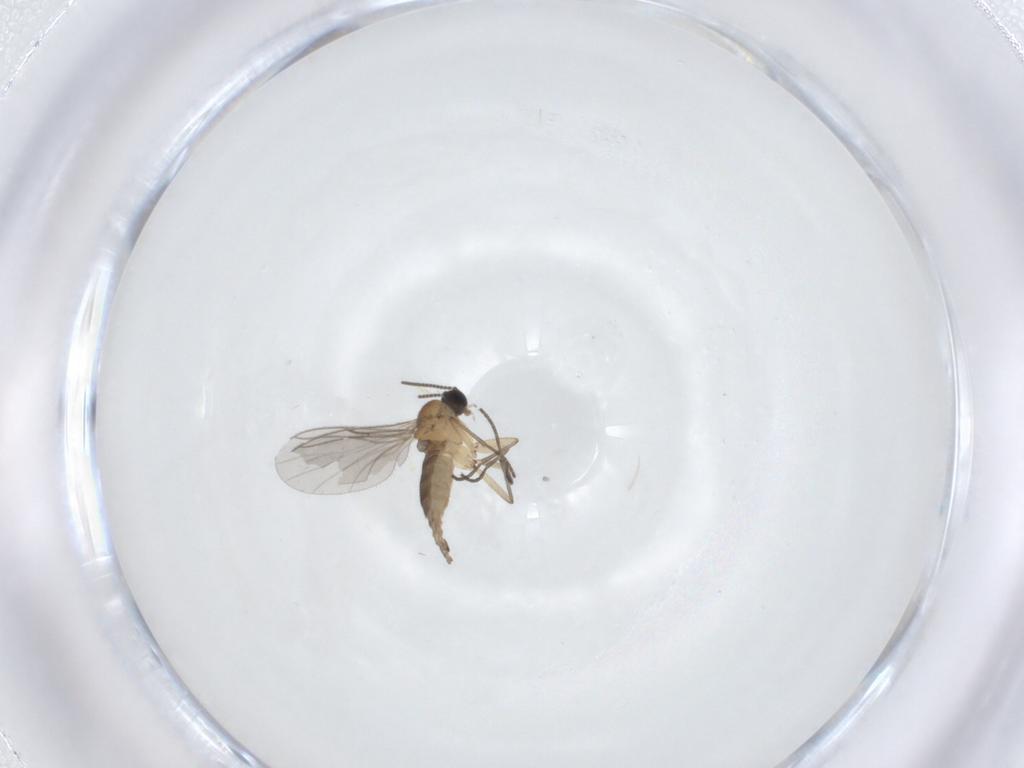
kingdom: Animalia
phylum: Arthropoda
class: Insecta
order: Diptera
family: Sciaridae
